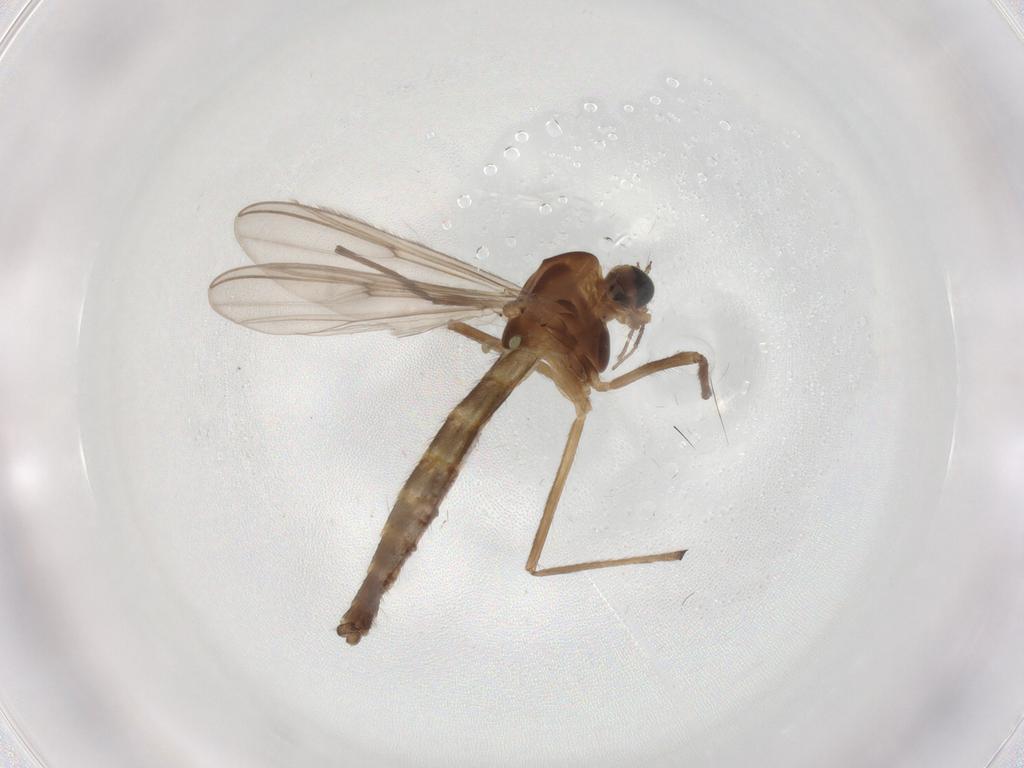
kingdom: Animalia
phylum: Arthropoda
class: Insecta
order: Diptera
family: Chironomidae
